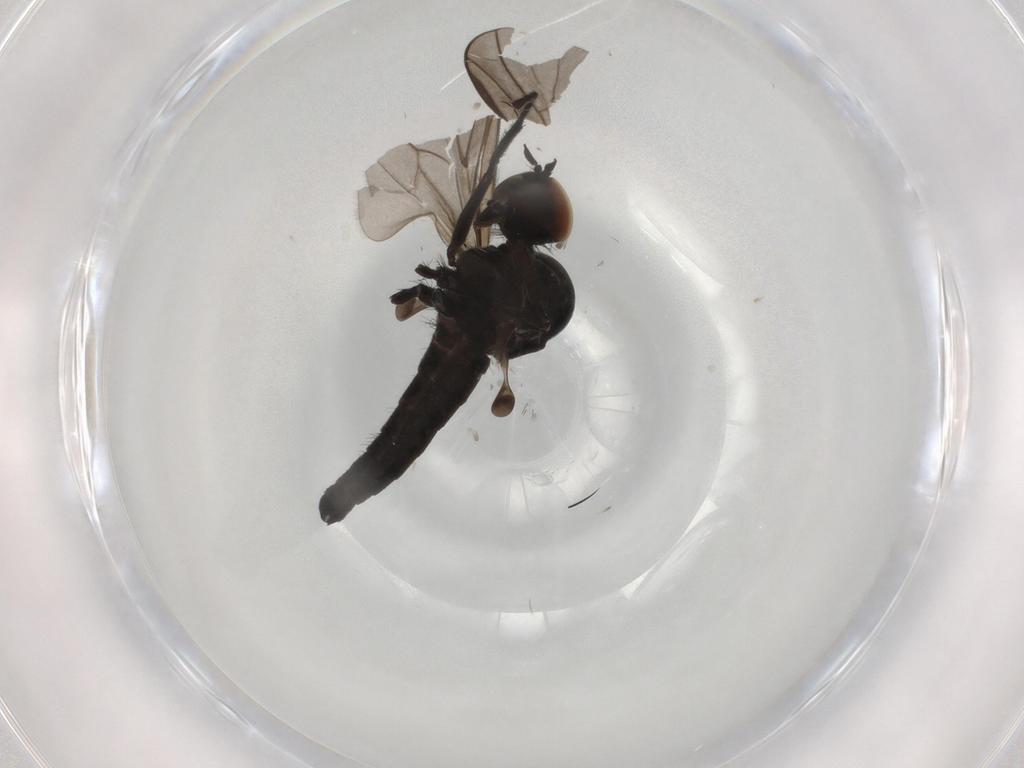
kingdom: Animalia
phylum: Arthropoda
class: Insecta
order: Diptera
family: Hybotidae
